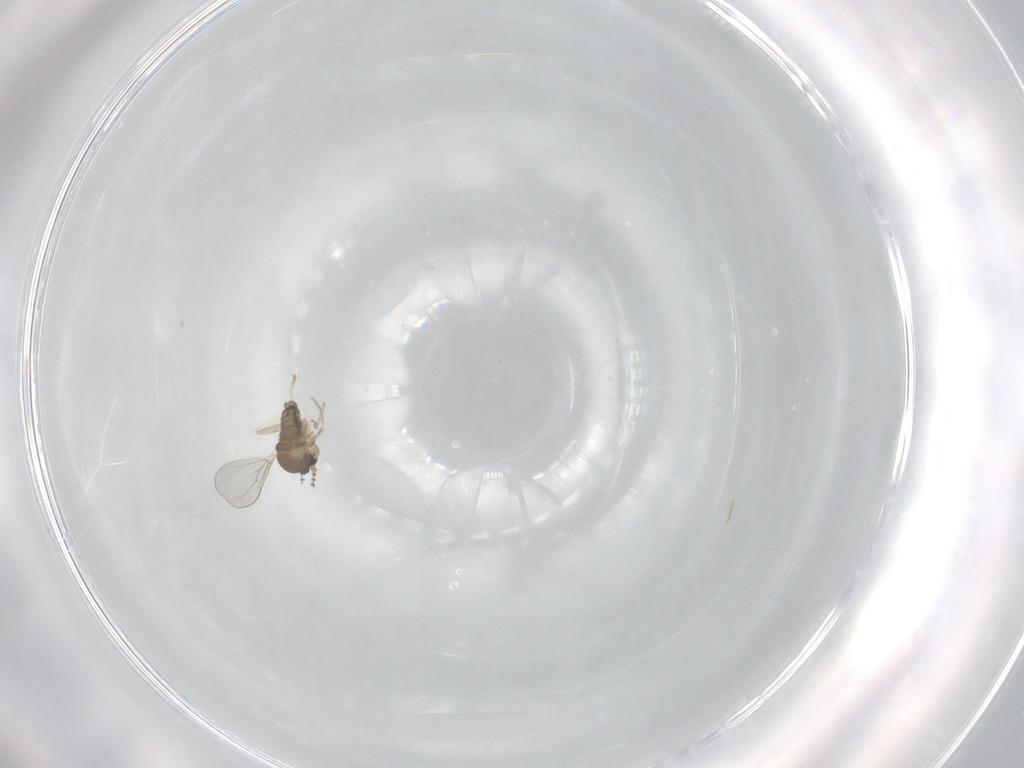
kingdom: Animalia
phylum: Arthropoda
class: Insecta
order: Diptera
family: Cecidomyiidae
